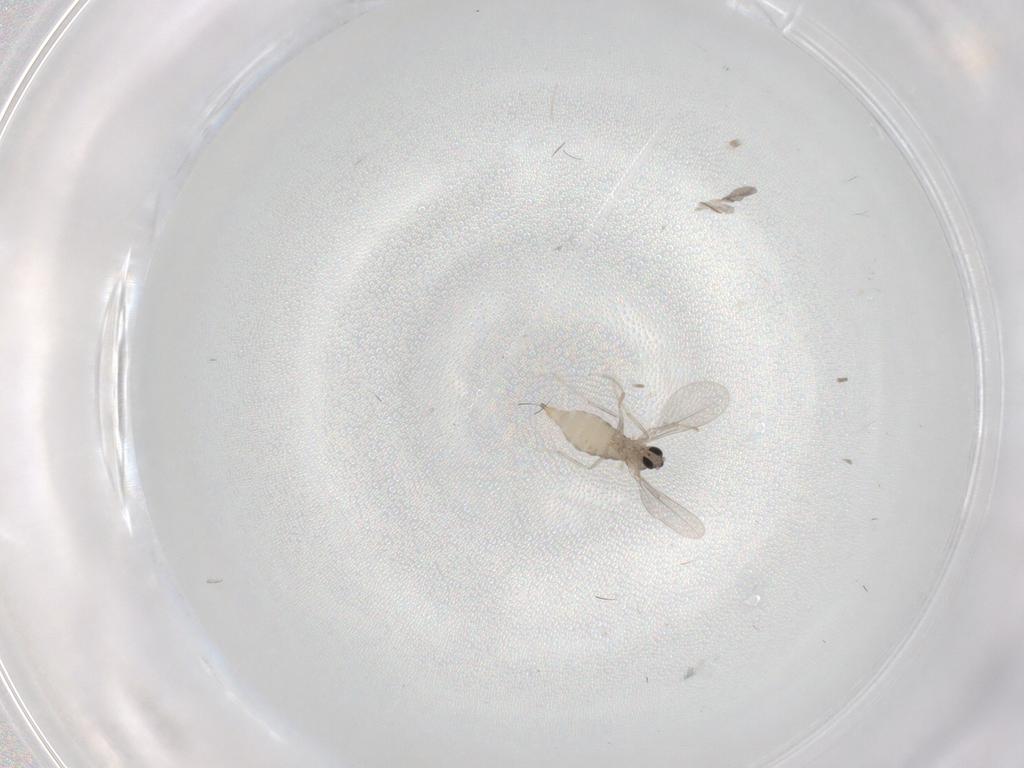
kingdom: Animalia
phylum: Arthropoda
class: Insecta
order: Diptera
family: Cecidomyiidae
